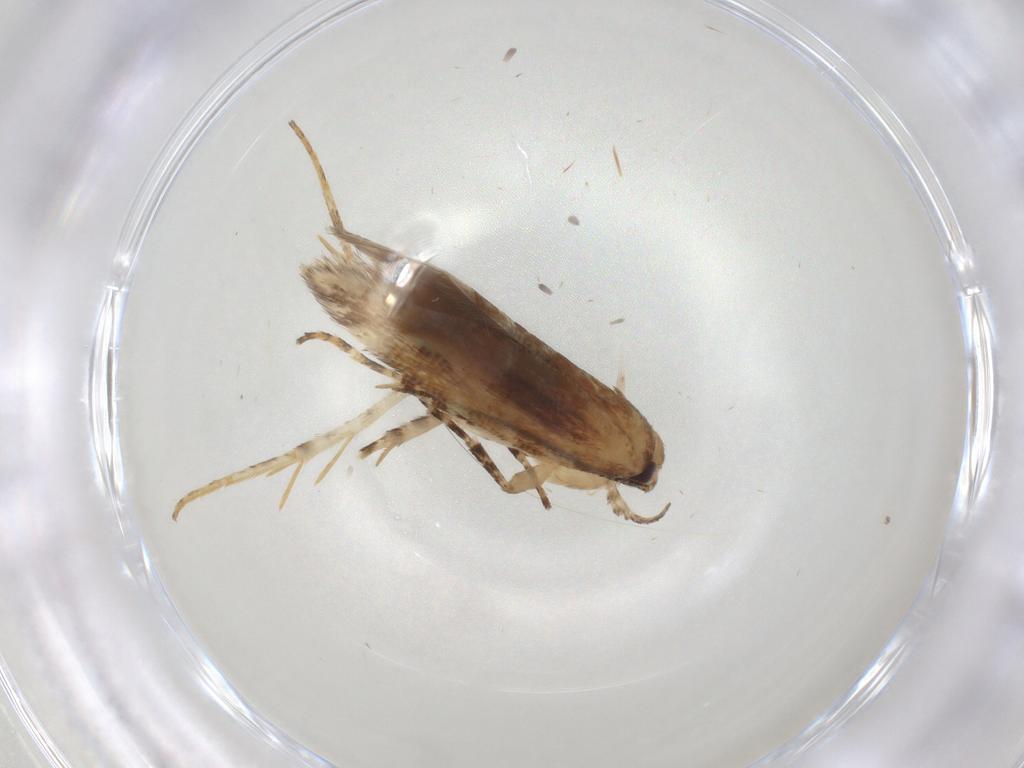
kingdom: Animalia
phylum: Arthropoda
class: Insecta
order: Lepidoptera
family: Gelechiidae
